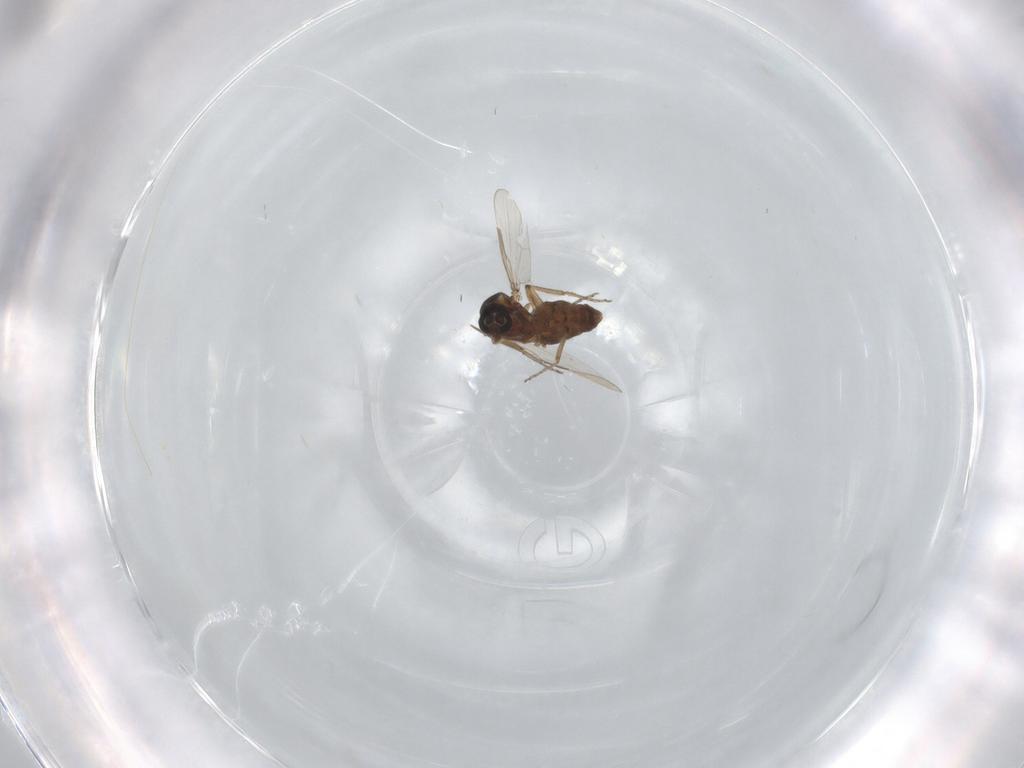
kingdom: Animalia
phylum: Arthropoda
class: Insecta
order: Diptera
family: Ceratopogonidae
